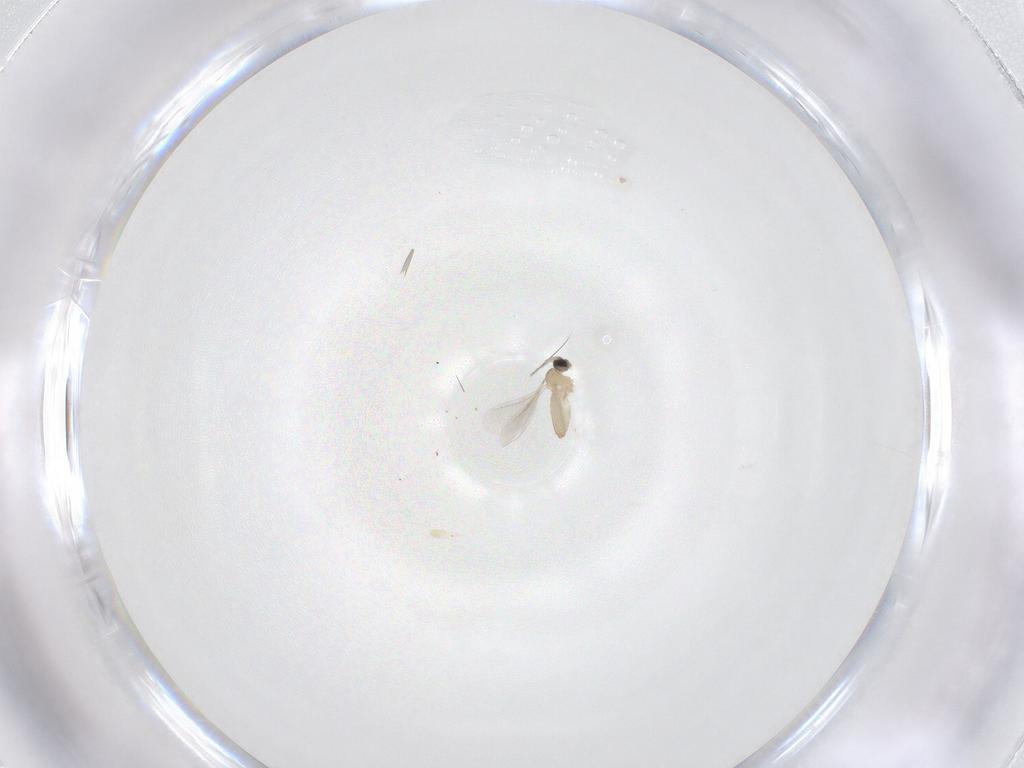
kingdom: Animalia
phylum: Arthropoda
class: Insecta
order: Diptera
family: Cecidomyiidae
